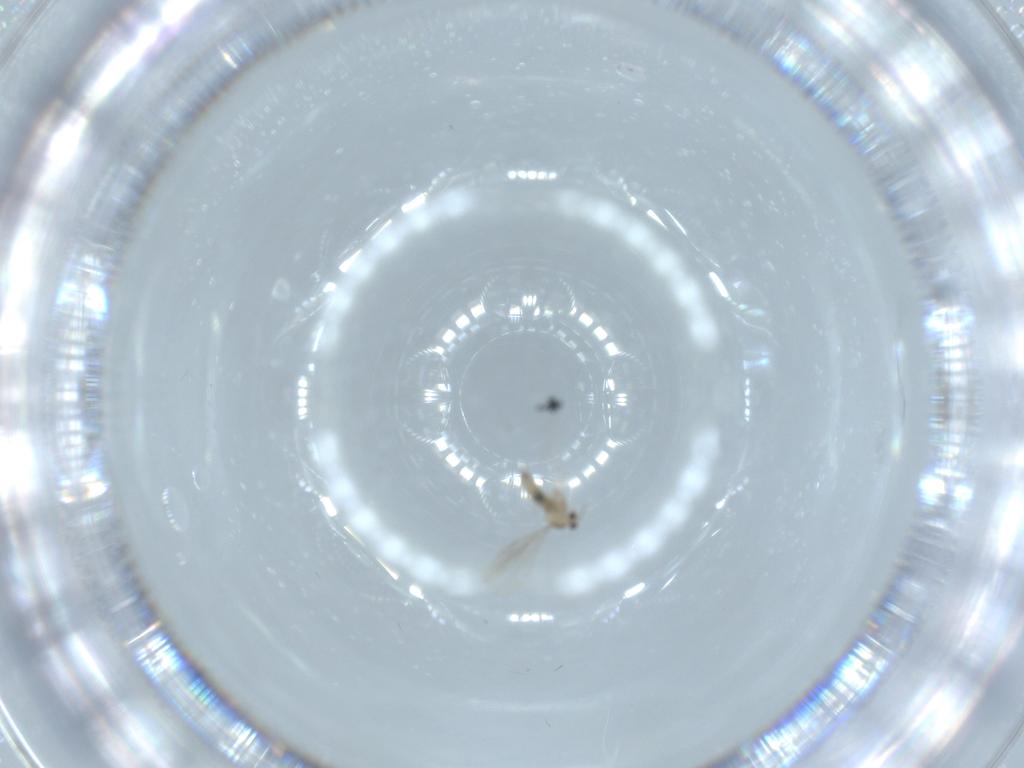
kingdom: Animalia
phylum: Arthropoda
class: Insecta
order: Diptera
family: Cecidomyiidae
